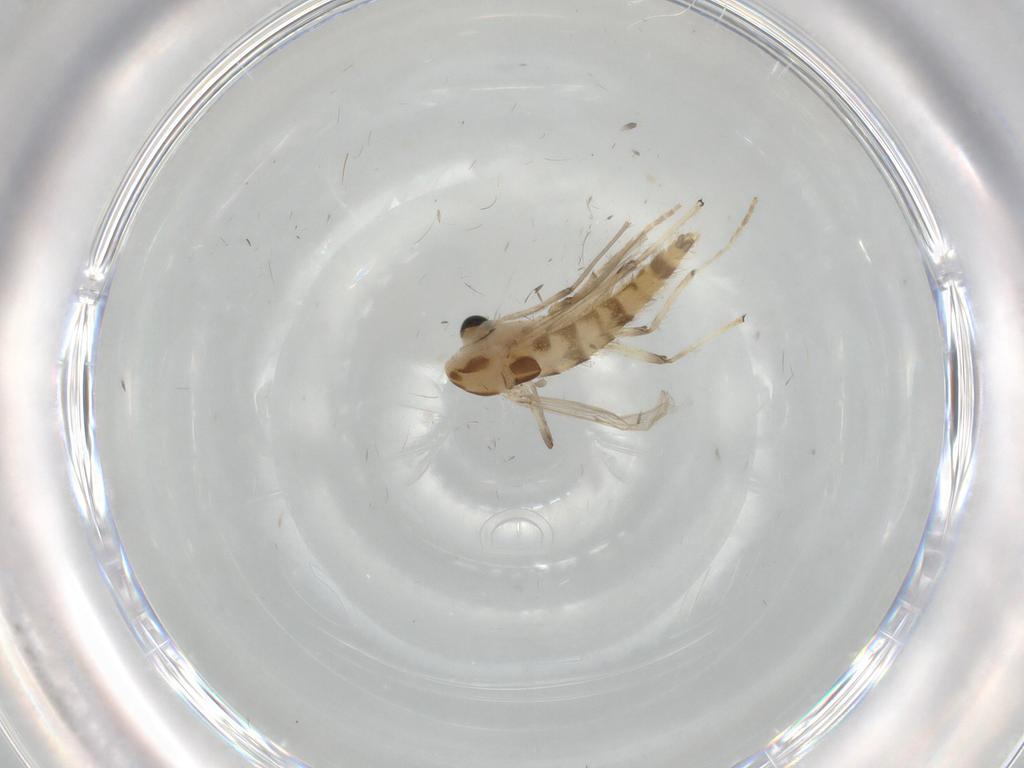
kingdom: Animalia
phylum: Arthropoda
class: Insecta
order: Diptera
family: Chironomidae
